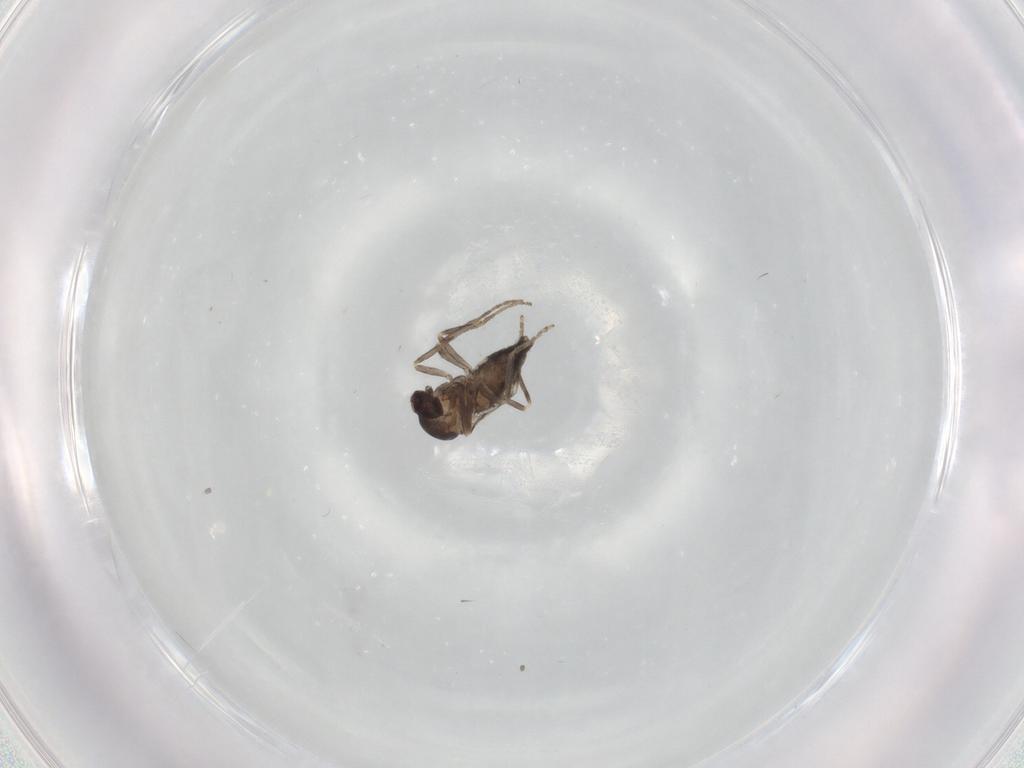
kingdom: Animalia
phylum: Arthropoda
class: Insecta
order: Diptera
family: Ceratopogonidae
